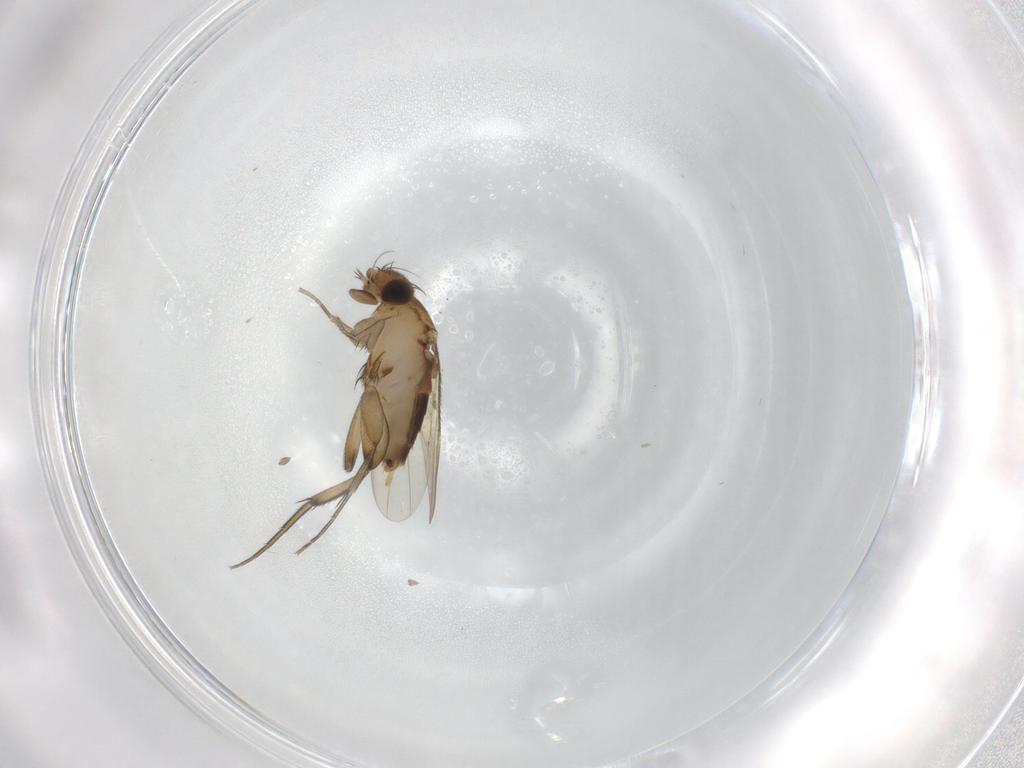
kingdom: Animalia
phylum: Arthropoda
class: Insecta
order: Diptera
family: Phoridae
